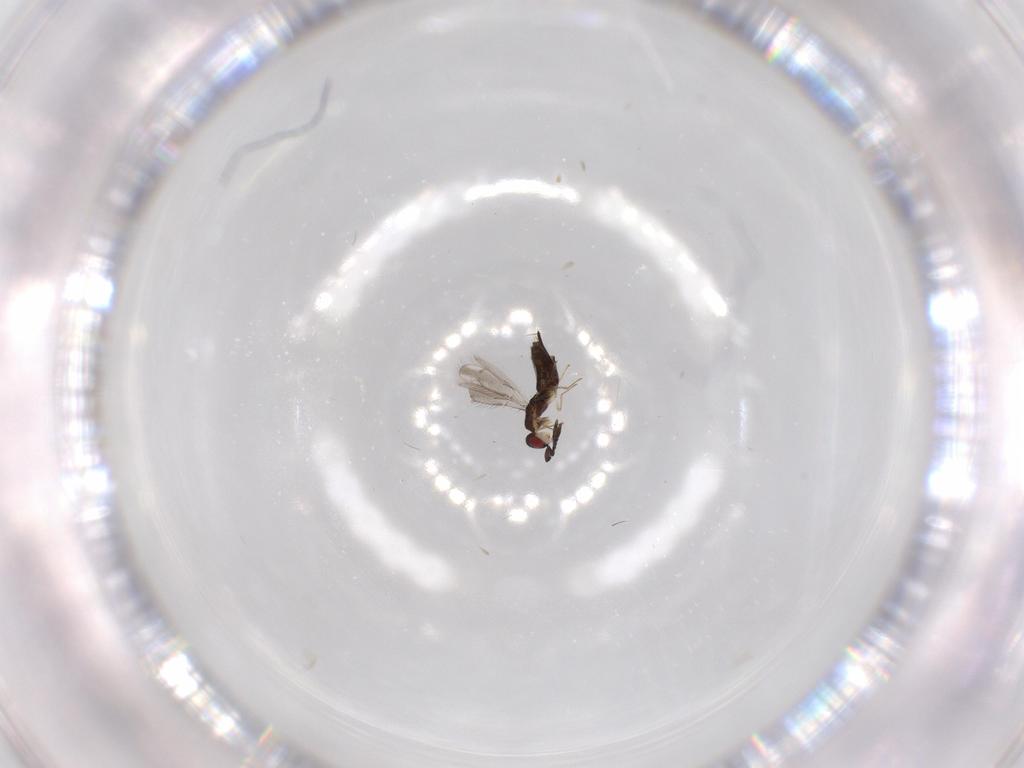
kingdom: Animalia
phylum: Arthropoda
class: Insecta
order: Hymenoptera
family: Pteromalidae
